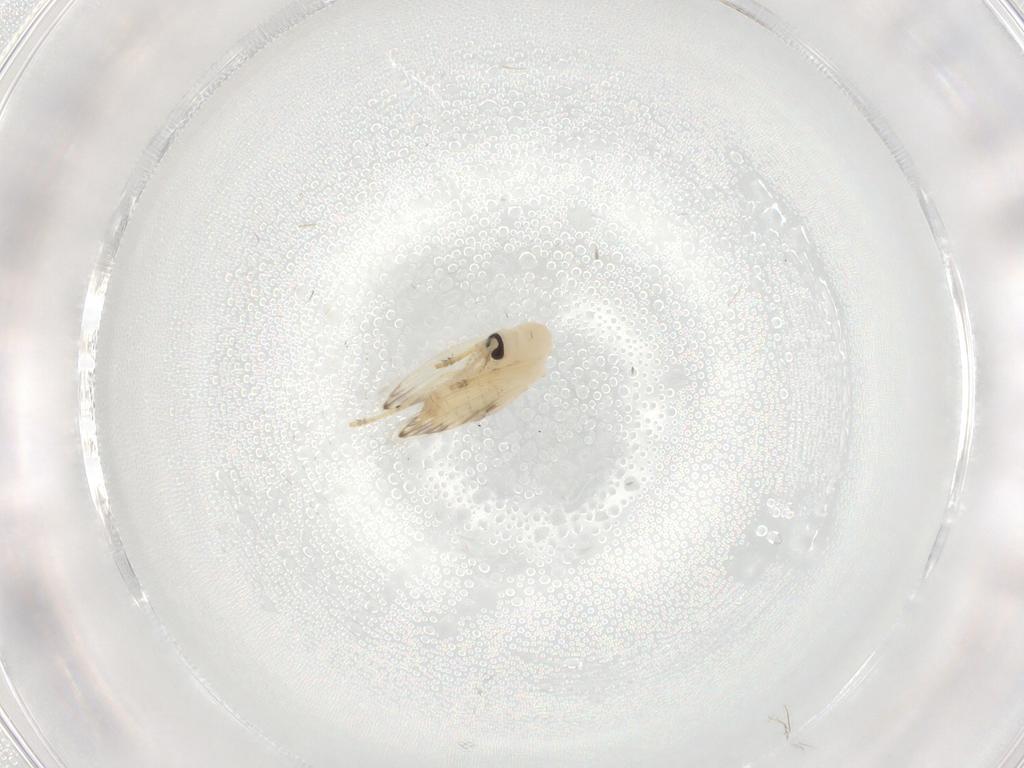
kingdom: Animalia
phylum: Arthropoda
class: Insecta
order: Diptera
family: Psychodidae
